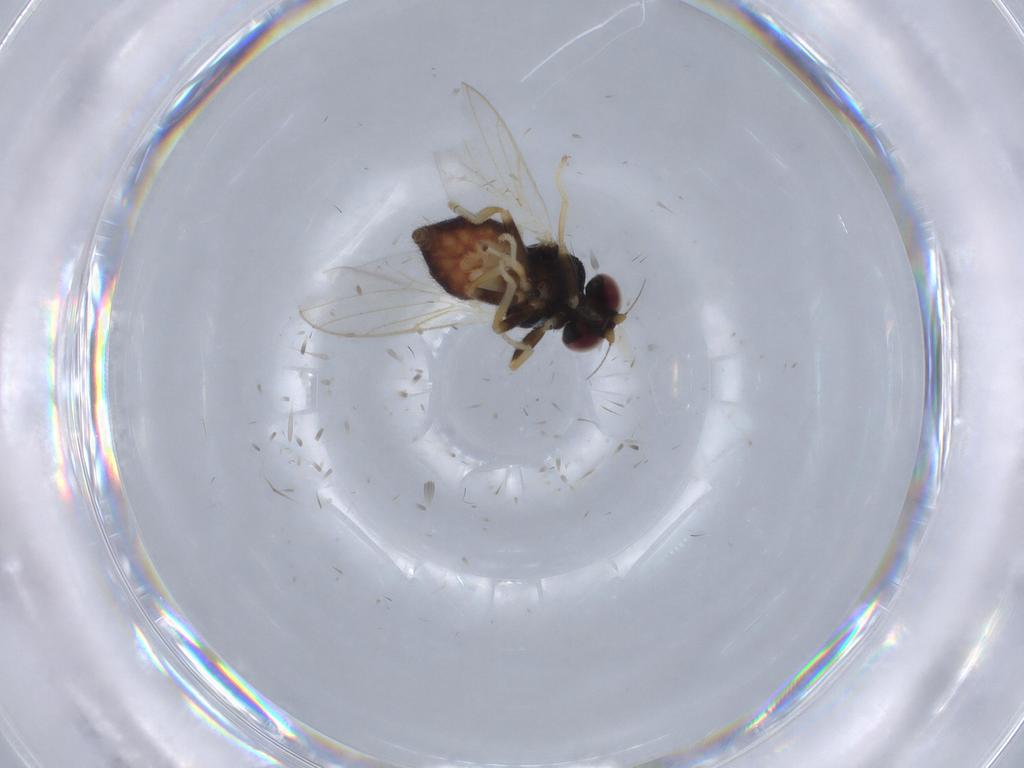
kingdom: Animalia
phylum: Arthropoda
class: Insecta
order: Diptera
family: Chloropidae
